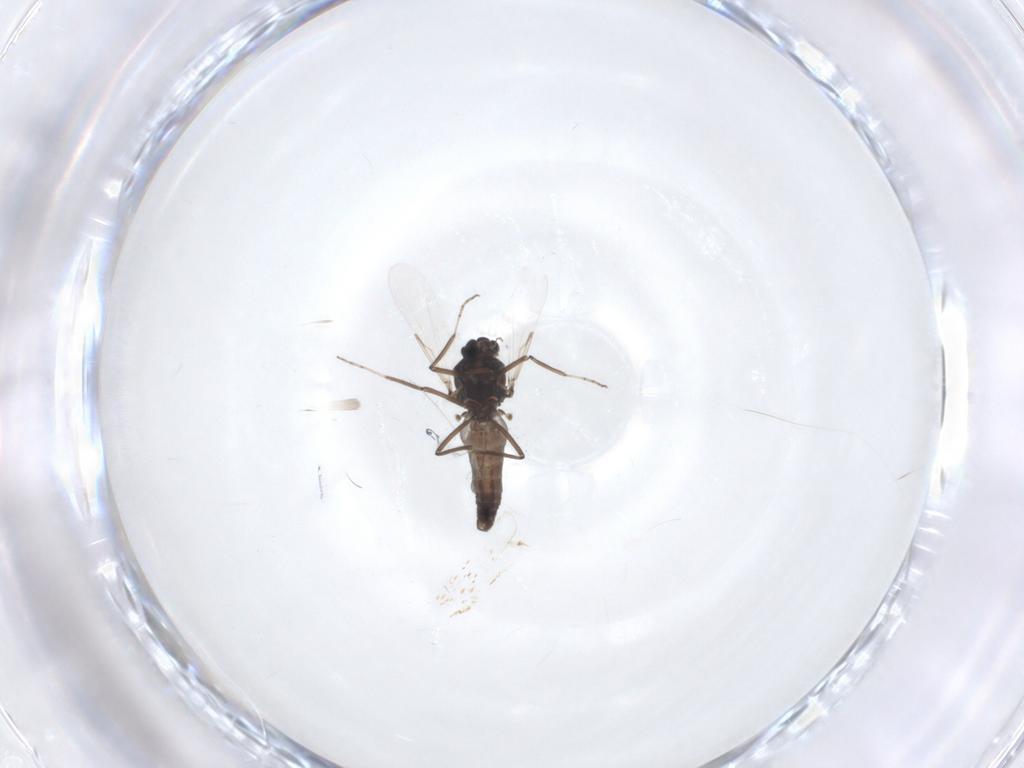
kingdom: Animalia
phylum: Arthropoda
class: Insecta
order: Diptera
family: Ceratopogonidae
